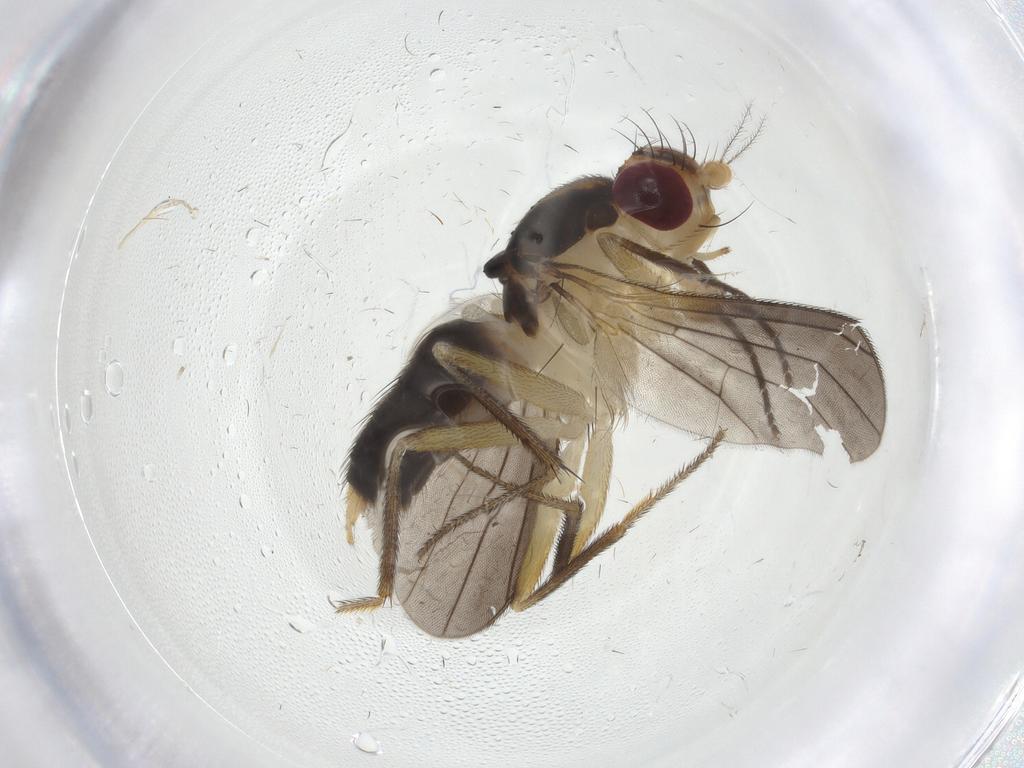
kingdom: Animalia
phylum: Arthropoda
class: Insecta
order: Diptera
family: Clusiidae
